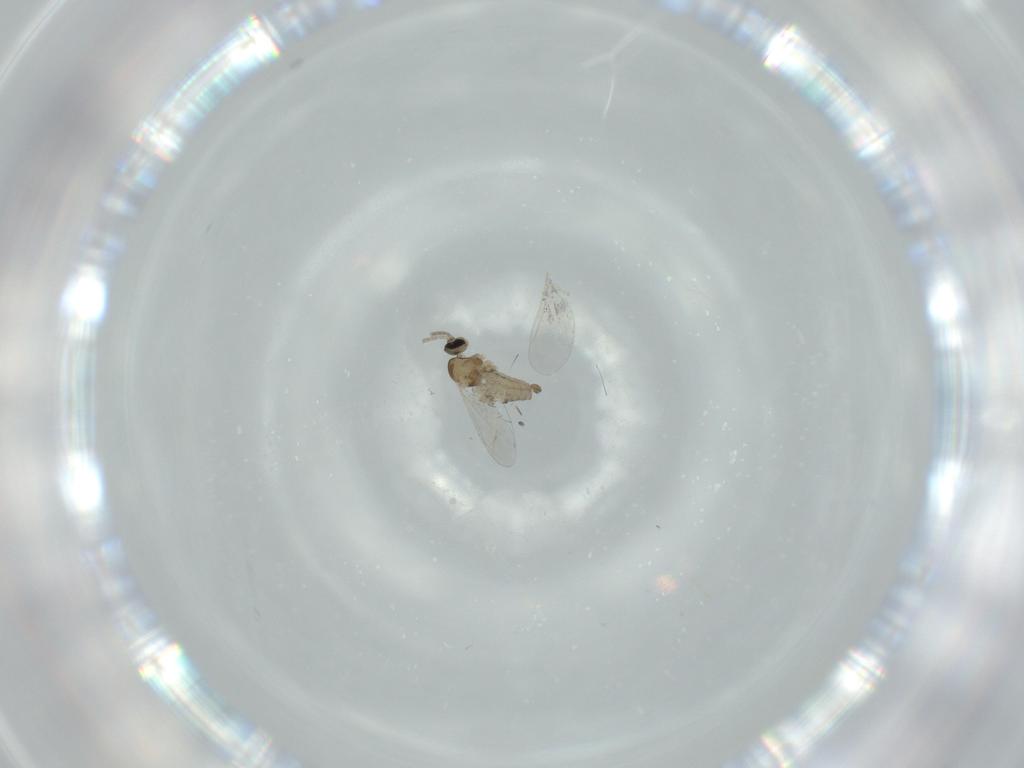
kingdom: Animalia
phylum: Arthropoda
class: Insecta
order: Diptera
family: Cecidomyiidae
